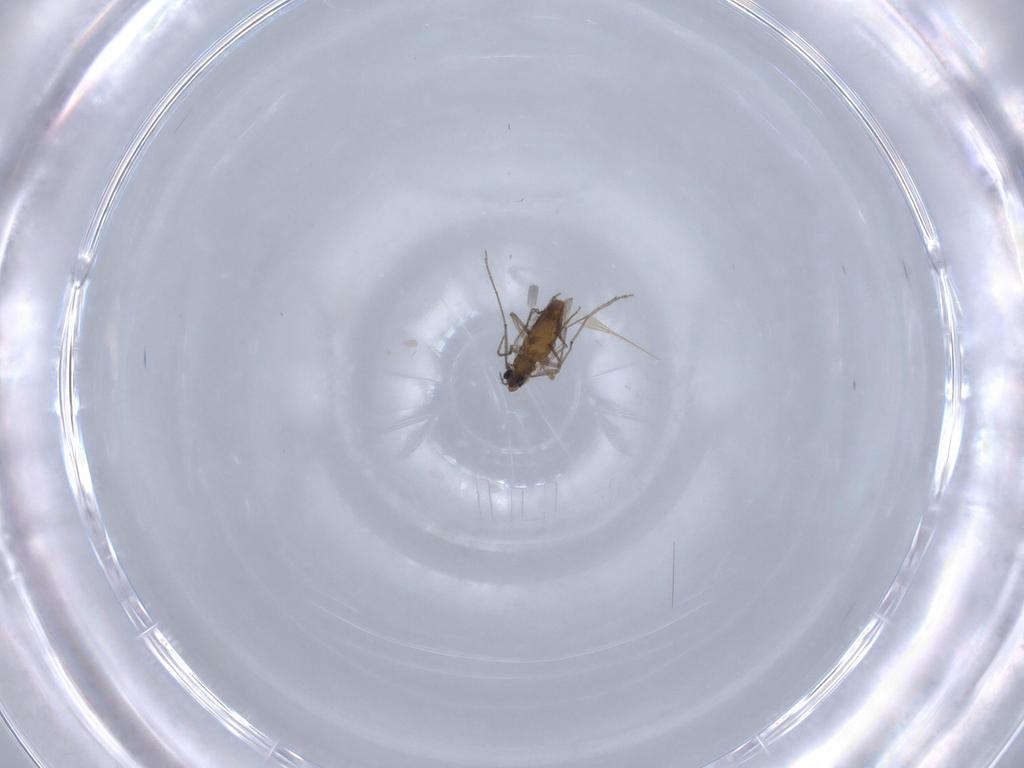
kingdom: Animalia
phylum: Arthropoda
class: Insecta
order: Diptera
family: Chironomidae
